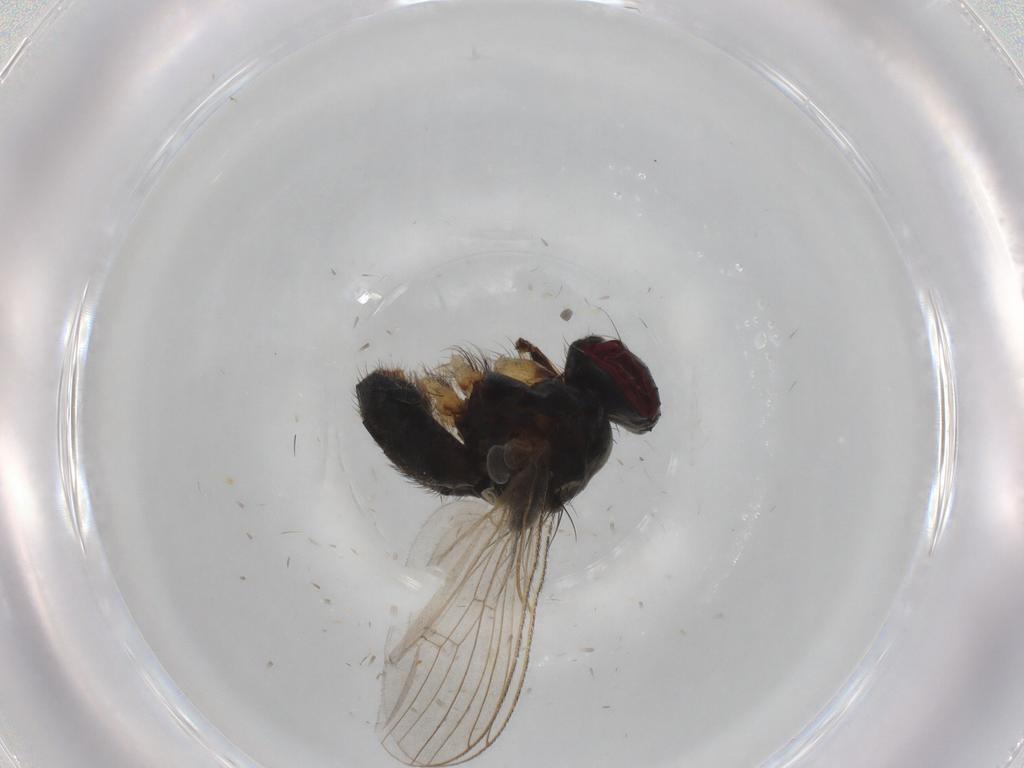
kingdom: Animalia
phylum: Arthropoda
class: Insecta
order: Diptera
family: Muscidae
